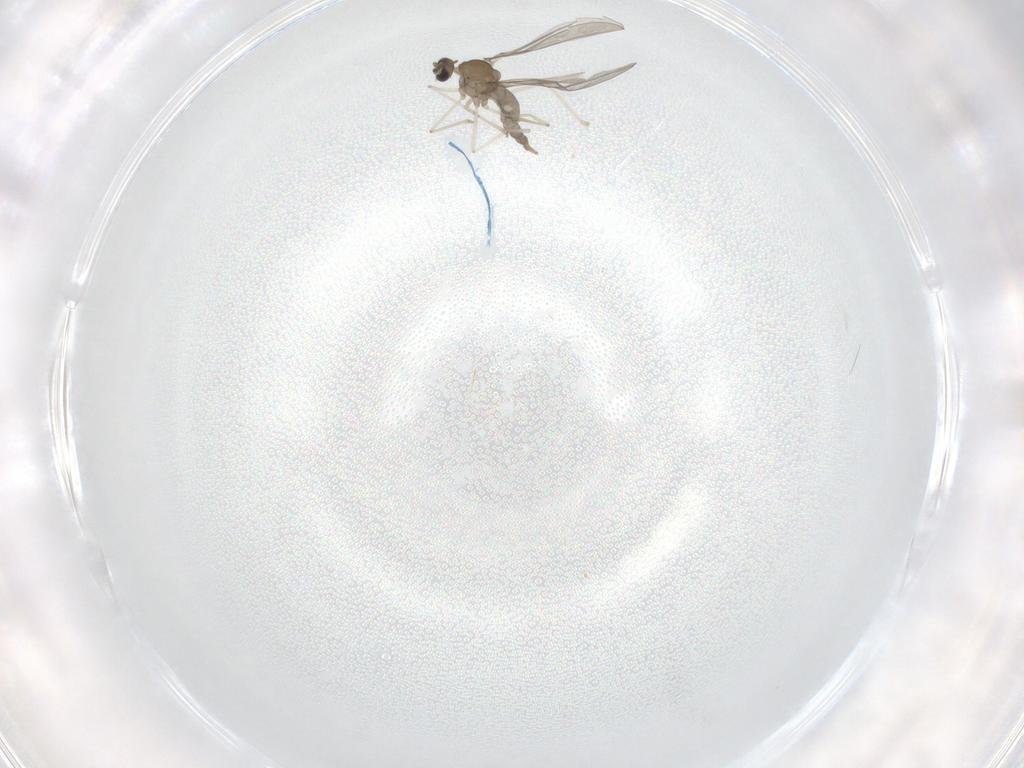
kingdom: Animalia
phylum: Arthropoda
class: Insecta
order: Diptera
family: Cecidomyiidae
